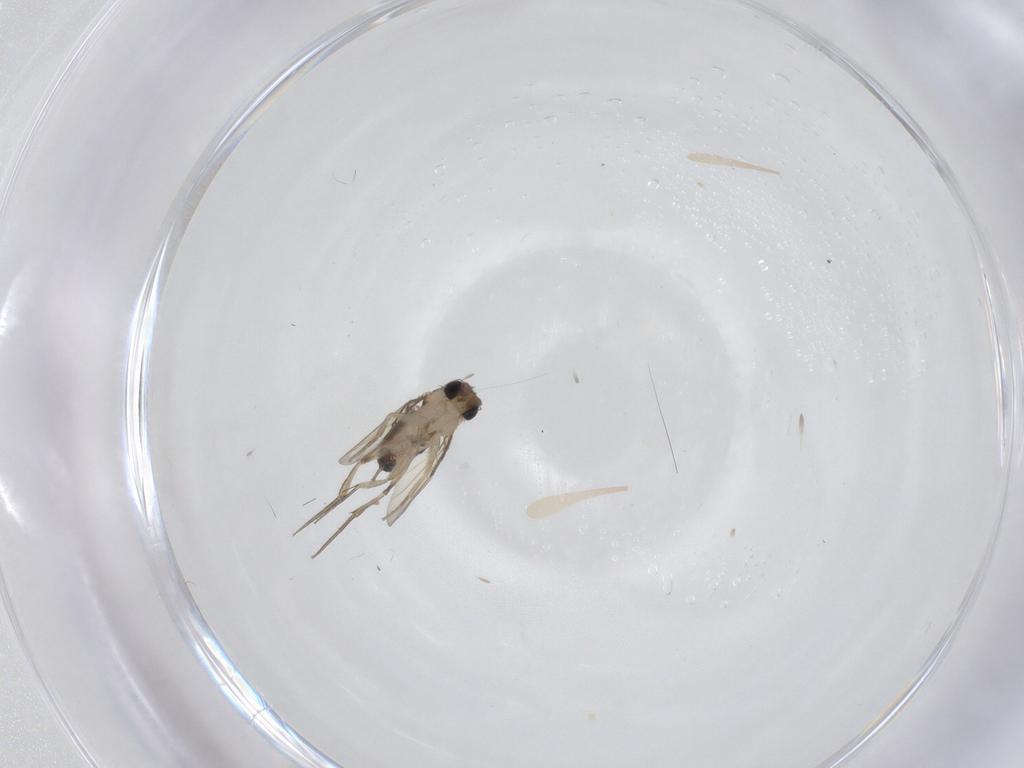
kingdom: Animalia
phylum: Arthropoda
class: Insecta
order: Diptera
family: Phoridae
